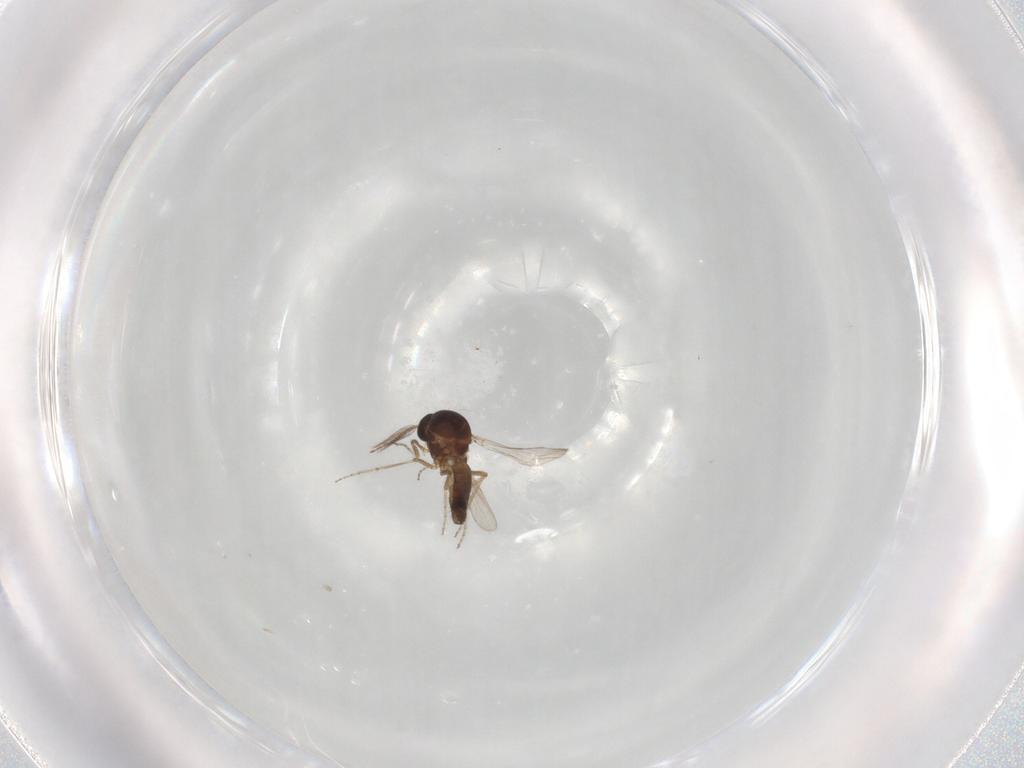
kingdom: Animalia
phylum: Arthropoda
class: Insecta
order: Diptera
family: Ceratopogonidae
